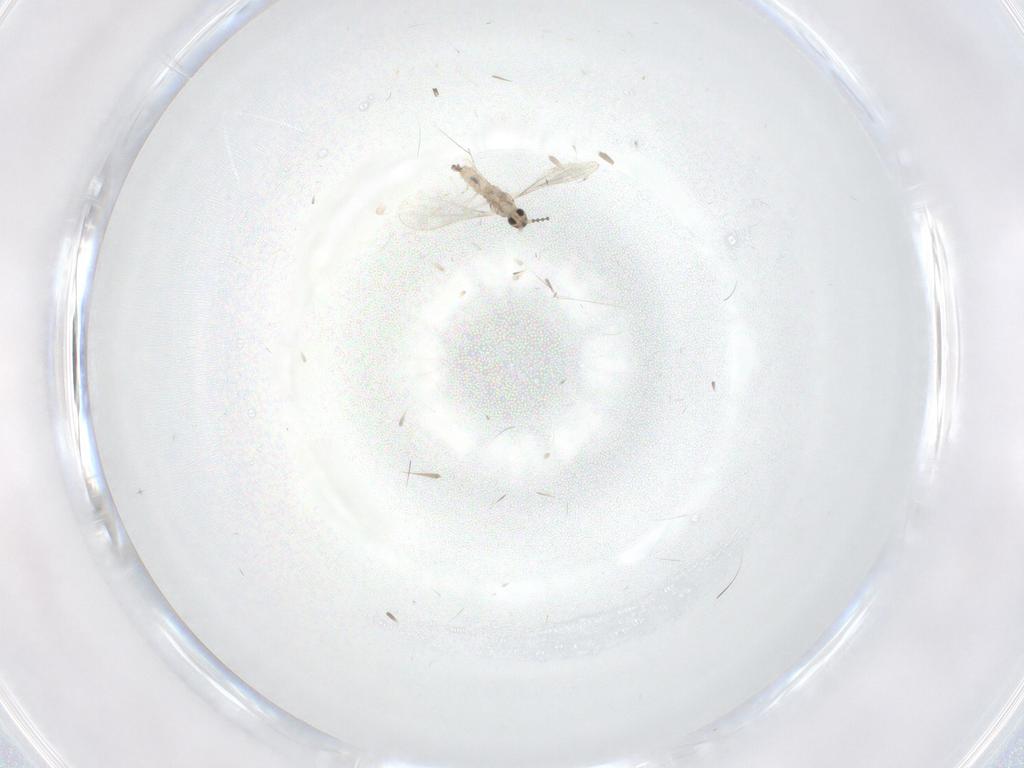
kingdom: Animalia
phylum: Arthropoda
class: Insecta
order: Diptera
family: Cecidomyiidae
